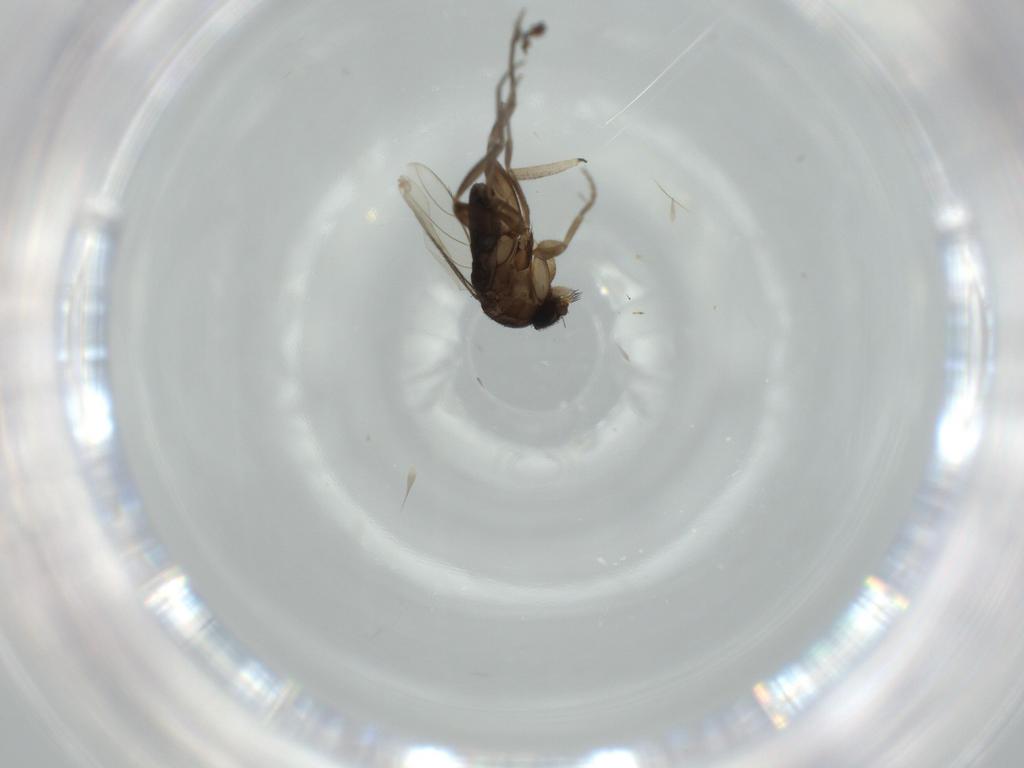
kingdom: Animalia
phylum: Arthropoda
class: Insecta
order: Diptera
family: Phoridae
